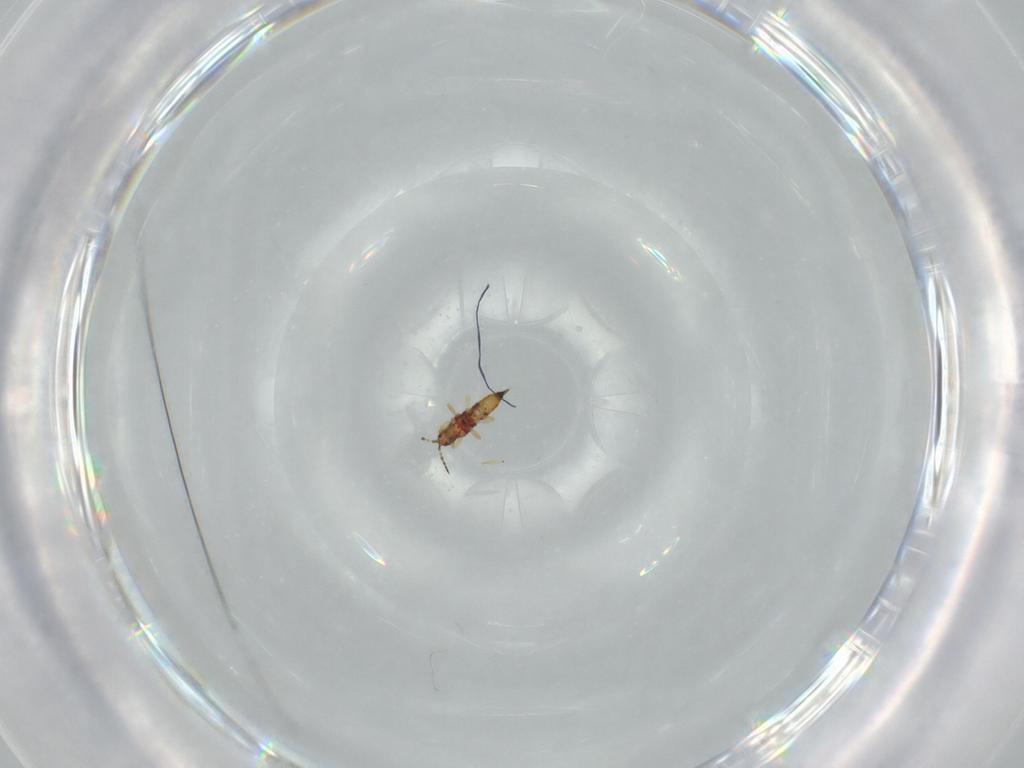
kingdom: Animalia
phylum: Arthropoda
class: Insecta
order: Thysanoptera
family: Phlaeothripidae
